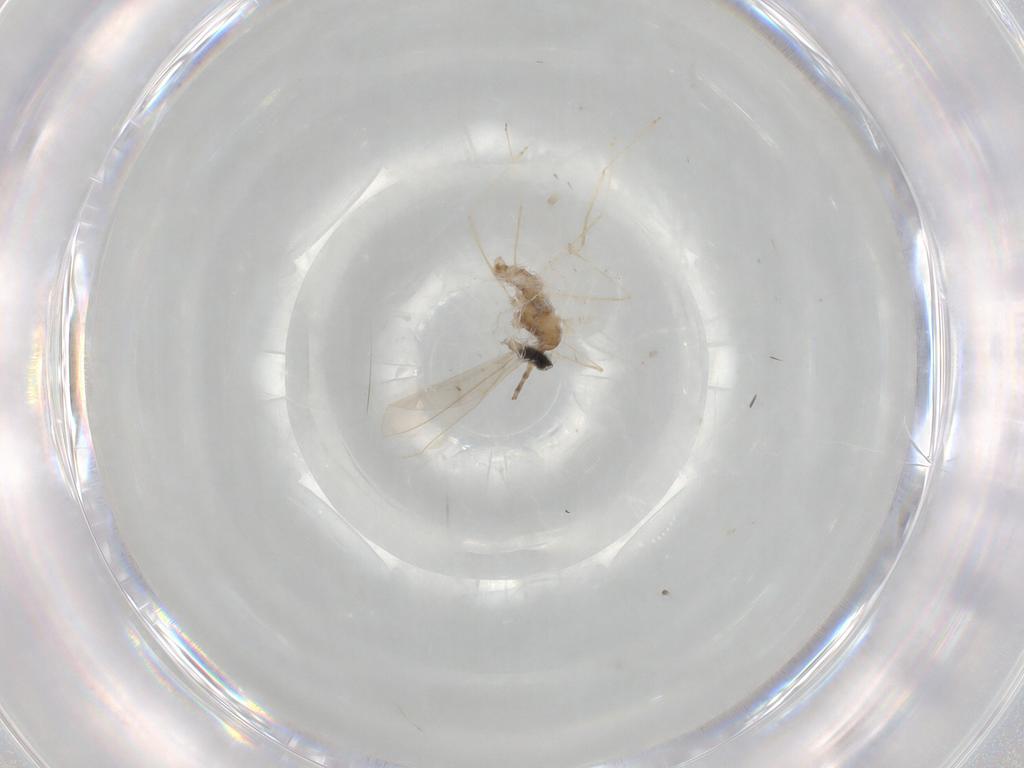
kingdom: Animalia
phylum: Arthropoda
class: Insecta
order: Diptera
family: Cecidomyiidae
